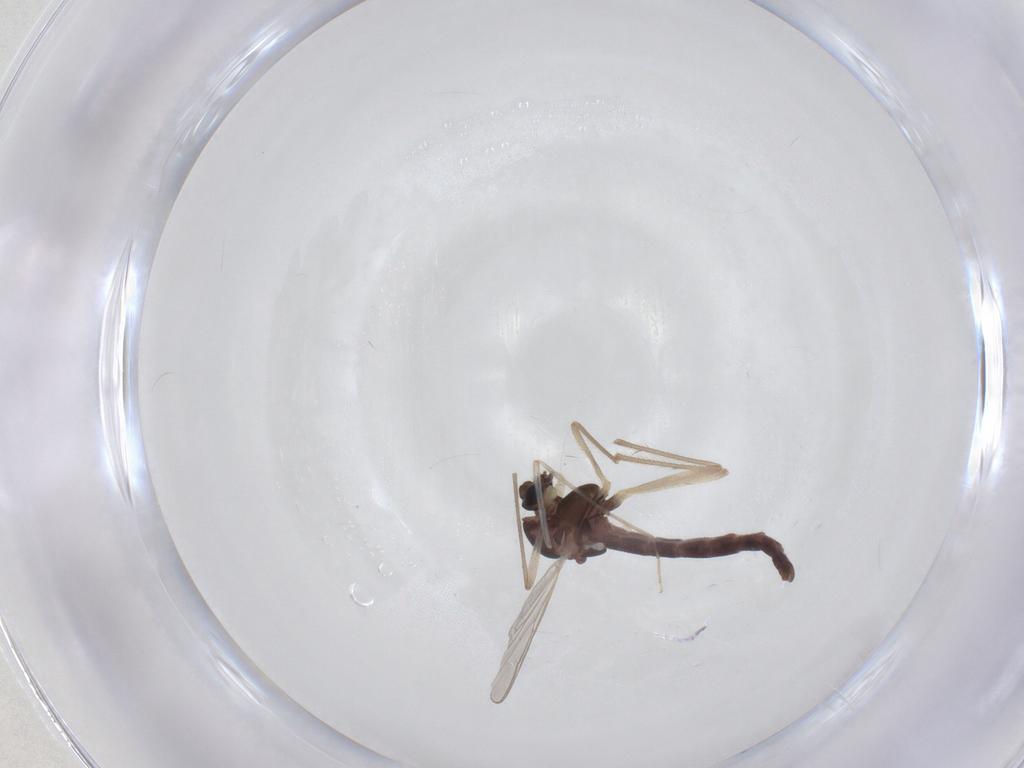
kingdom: Animalia
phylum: Arthropoda
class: Insecta
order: Diptera
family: Chironomidae
